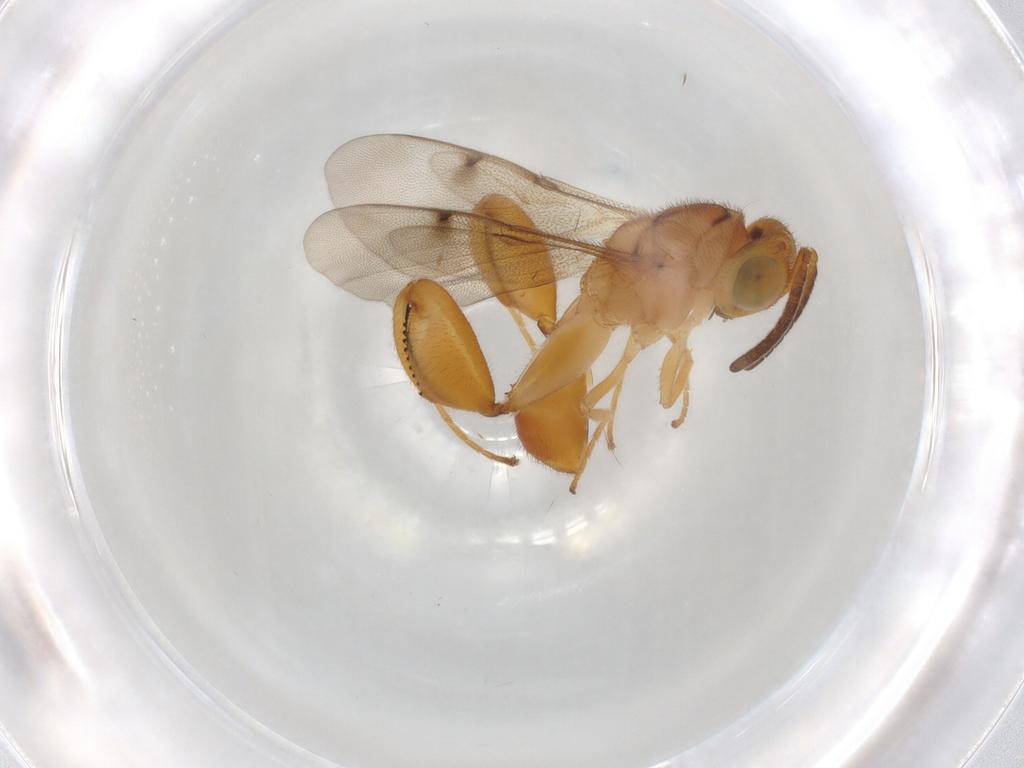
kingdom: Animalia
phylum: Arthropoda
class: Insecta
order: Hymenoptera
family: Chalcididae
